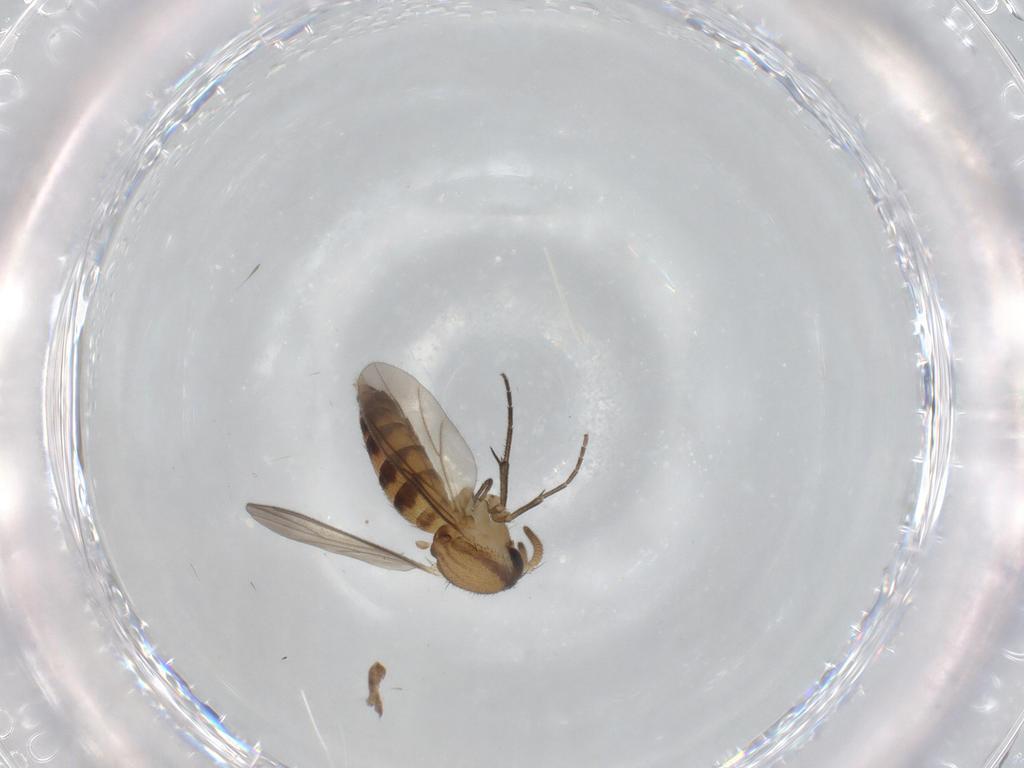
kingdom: Animalia
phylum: Arthropoda
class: Insecta
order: Diptera
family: Mycetophilidae
